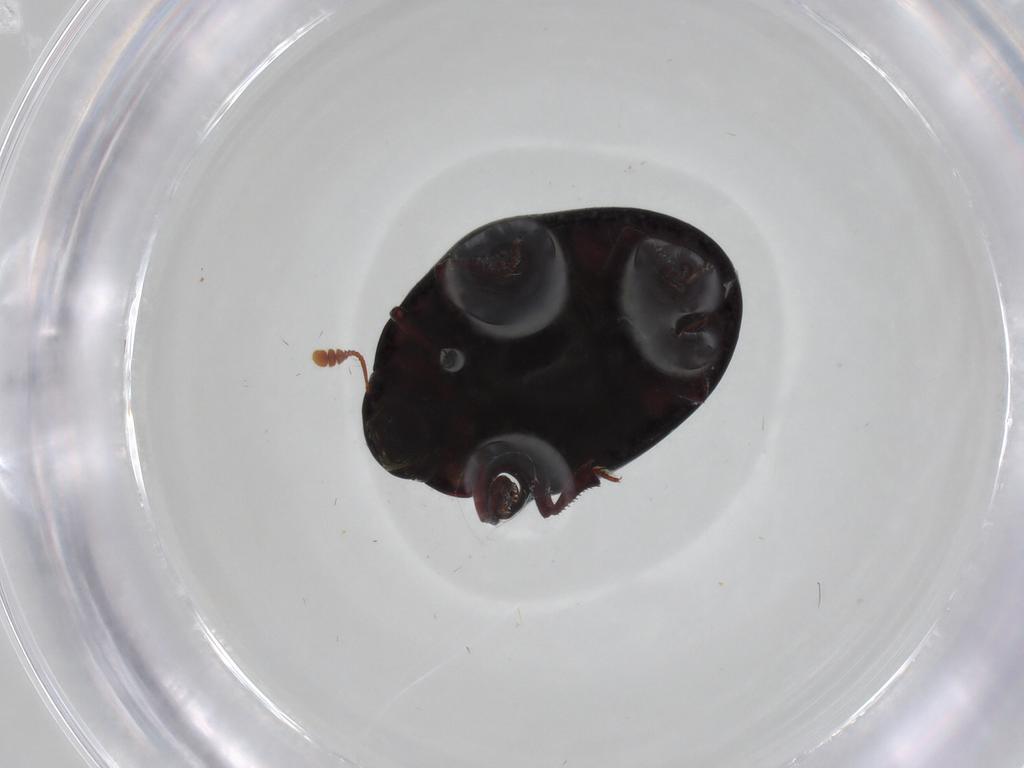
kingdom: Animalia
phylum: Arthropoda
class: Insecta
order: Coleoptera
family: Nosodendridae
